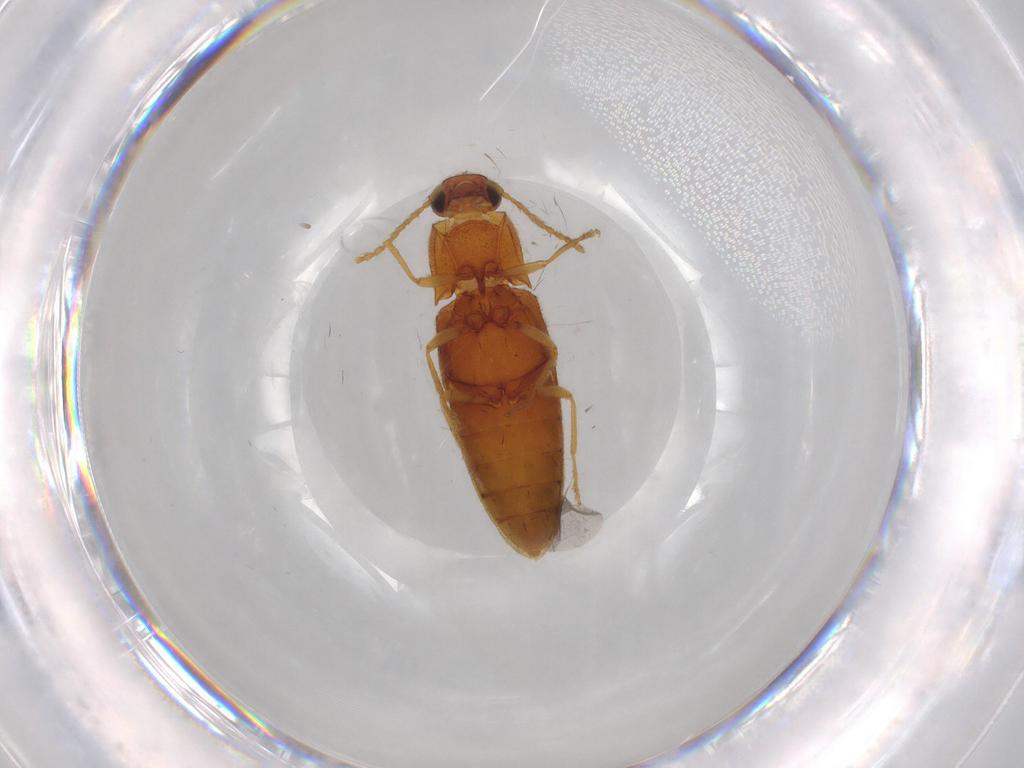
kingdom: Animalia
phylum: Arthropoda
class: Insecta
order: Coleoptera
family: Elateridae
